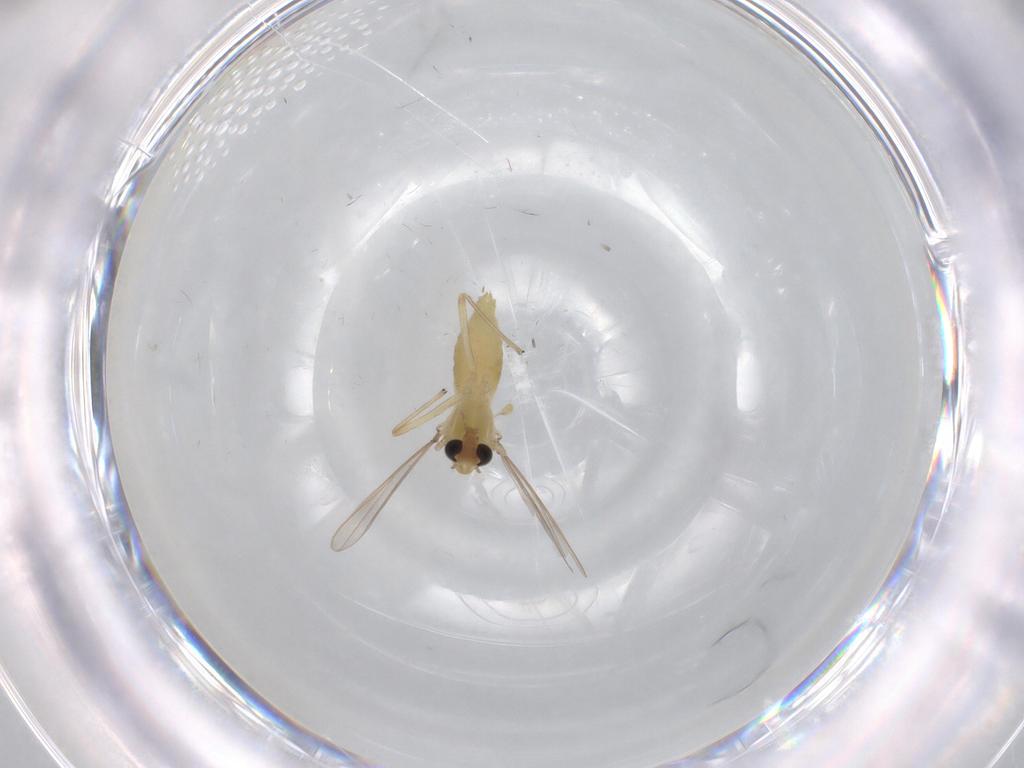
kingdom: Animalia
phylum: Arthropoda
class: Insecta
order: Diptera
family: Chironomidae
